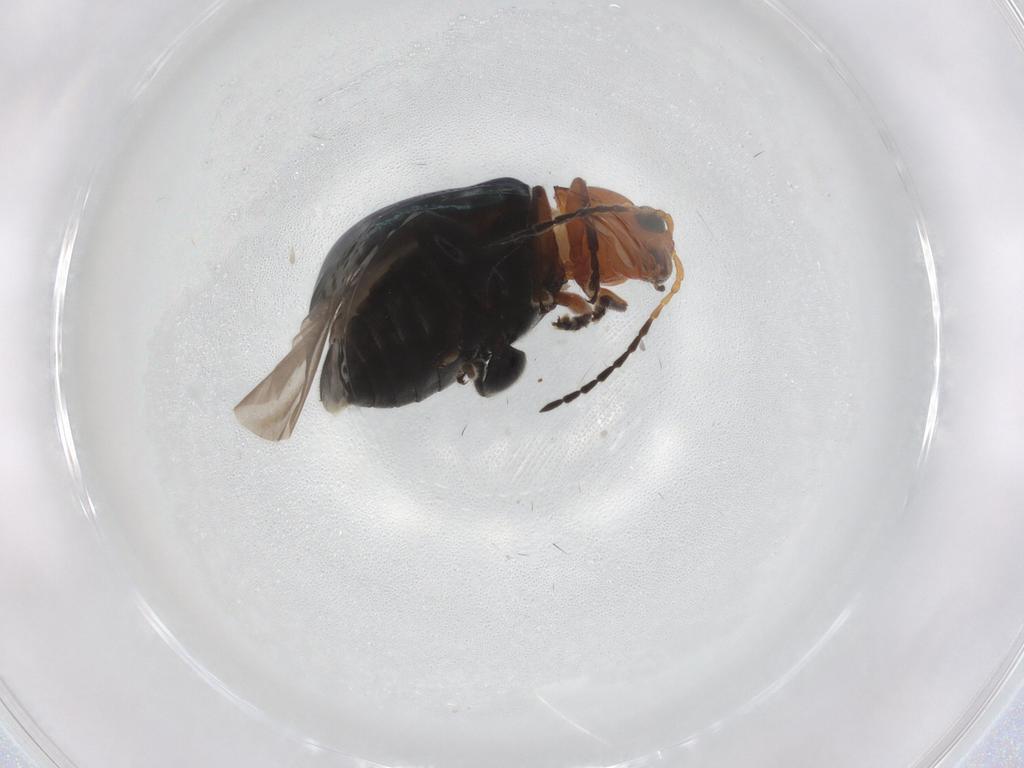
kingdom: Animalia
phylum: Arthropoda
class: Insecta
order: Coleoptera
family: Chrysomelidae
